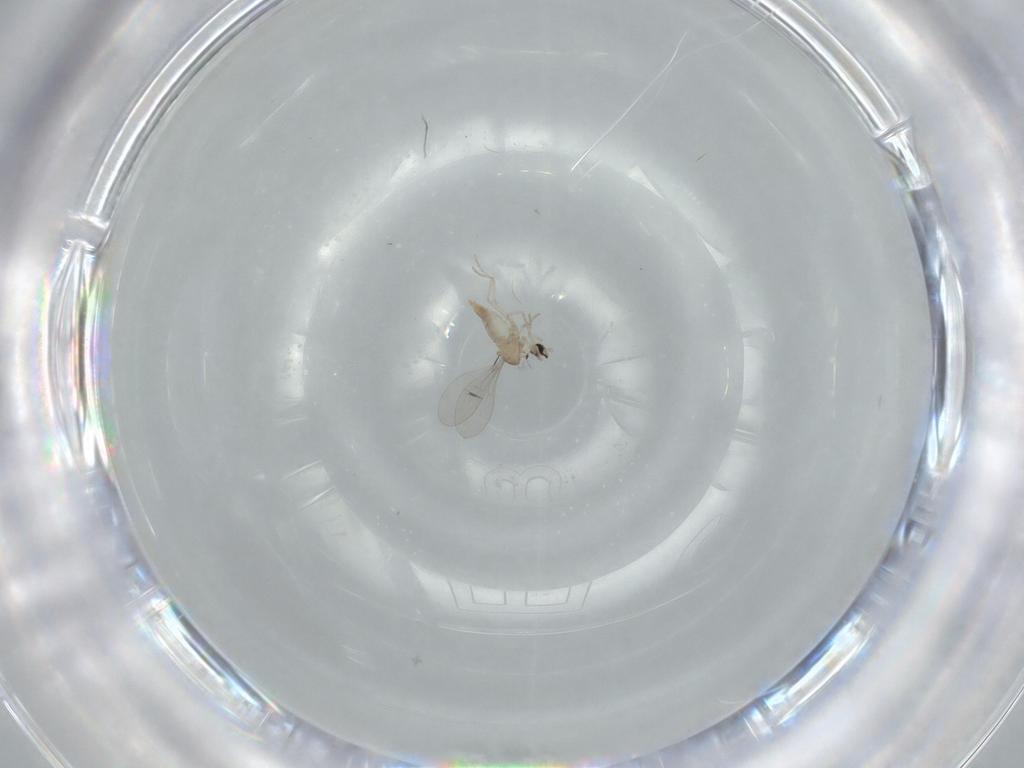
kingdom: Animalia
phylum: Arthropoda
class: Insecta
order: Diptera
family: Cecidomyiidae
